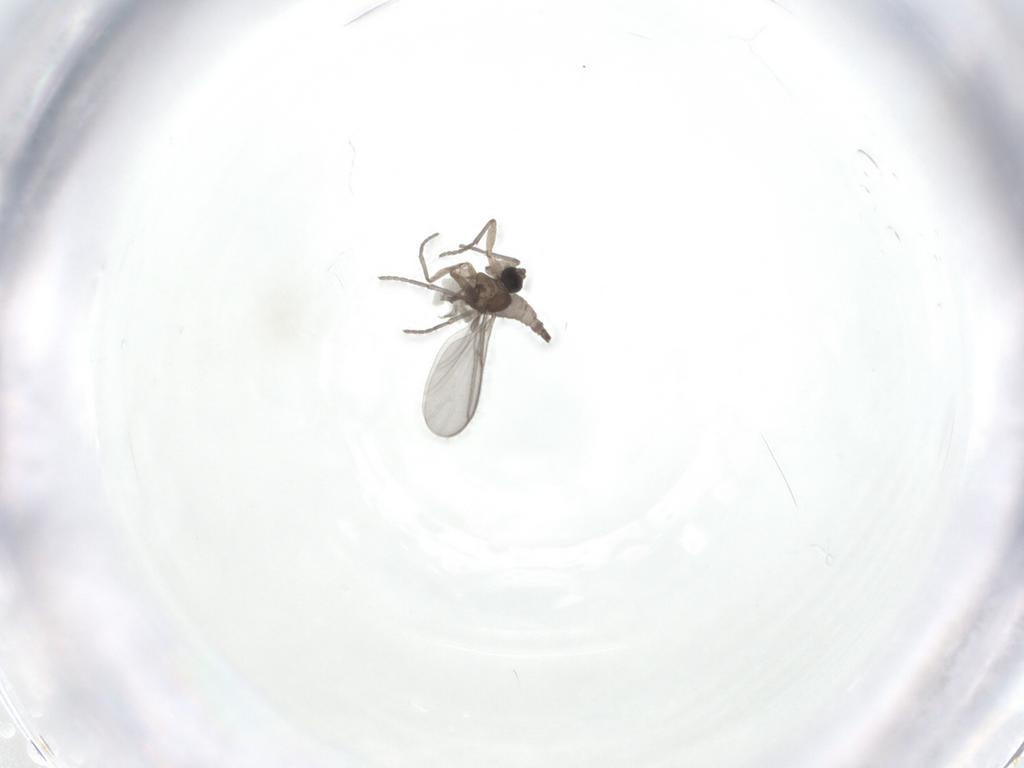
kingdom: Animalia
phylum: Arthropoda
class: Insecta
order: Diptera
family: Sciaridae
